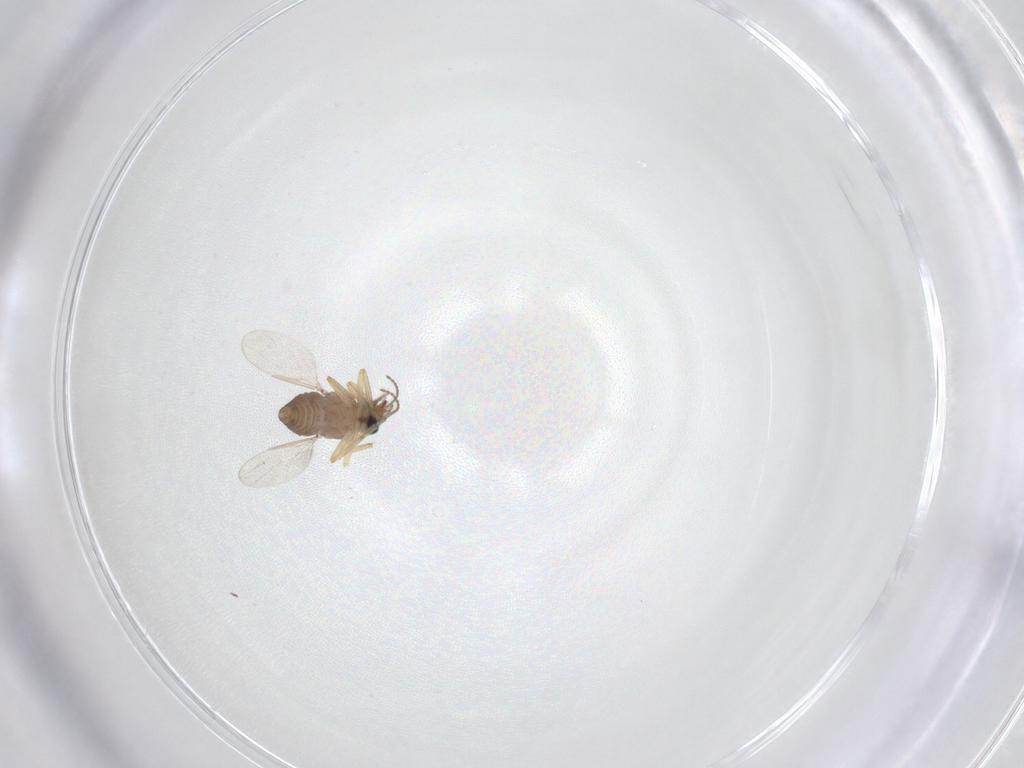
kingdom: Animalia
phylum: Arthropoda
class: Insecta
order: Diptera
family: Ceratopogonidae
